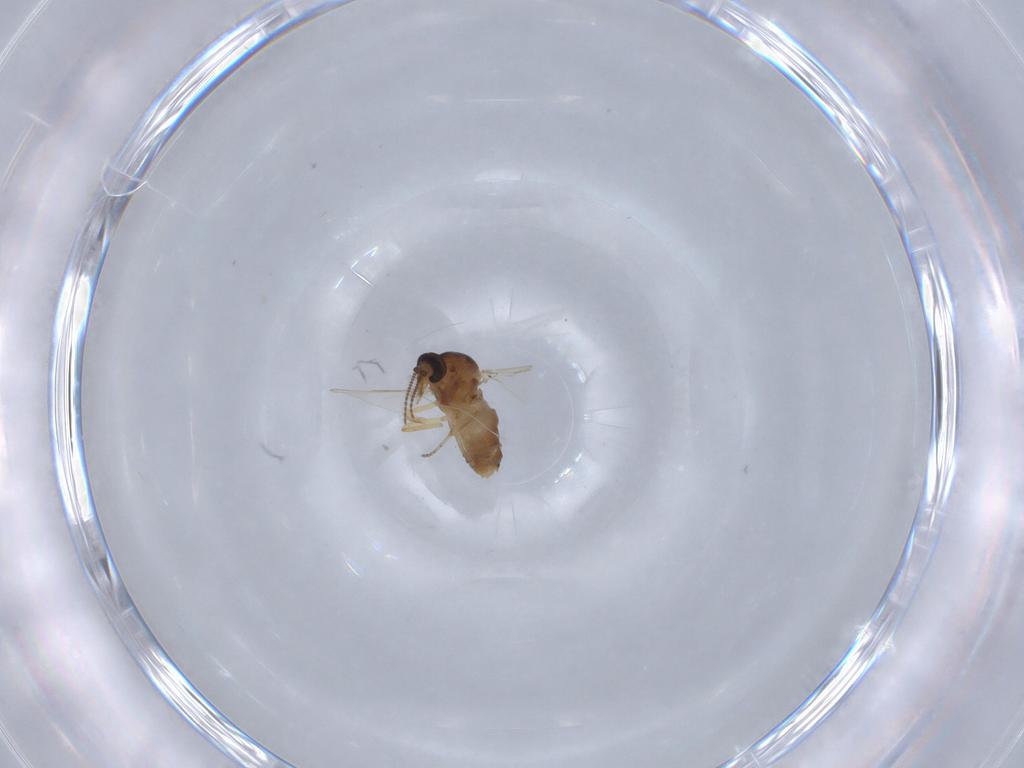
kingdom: Animalia
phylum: Arthropoda
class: Insecta
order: Diptera
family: Ceratopogonidae
